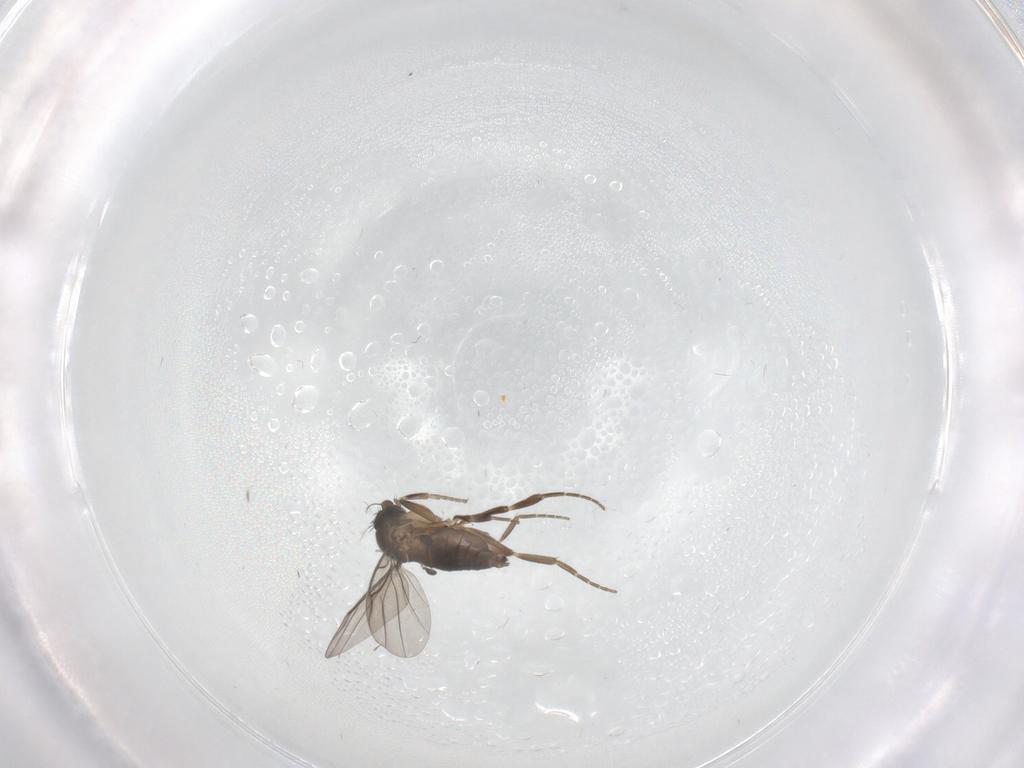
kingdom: Animalia
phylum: Arthropoda
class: Insecta
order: Diptera
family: Phoridae
